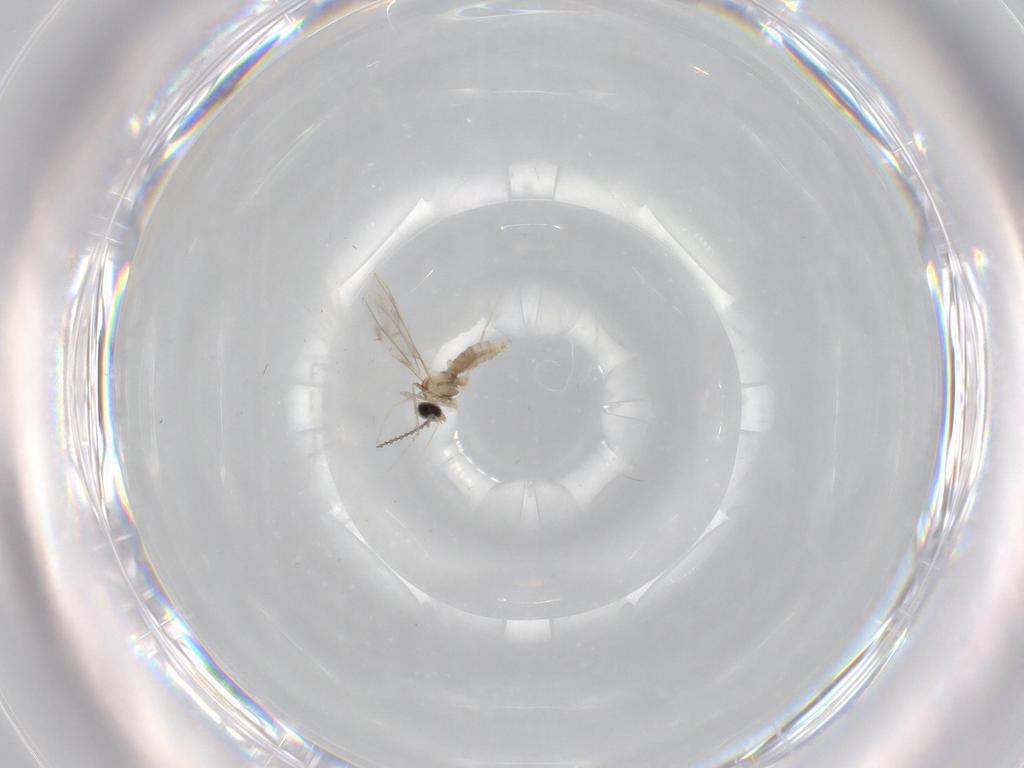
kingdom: Animalia
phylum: Arthropoda
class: Insecta
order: Diptera
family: Cecidomyiidae
